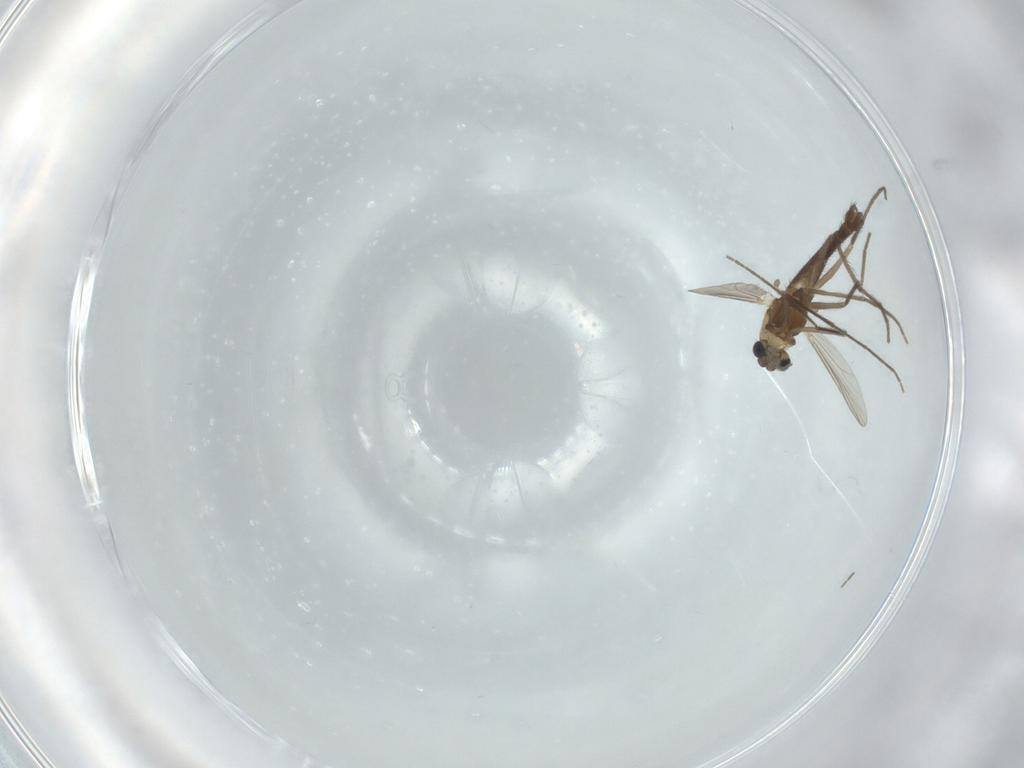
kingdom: Animalia
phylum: Arthropoda
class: Insecta
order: Diptera
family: Chironomidae
